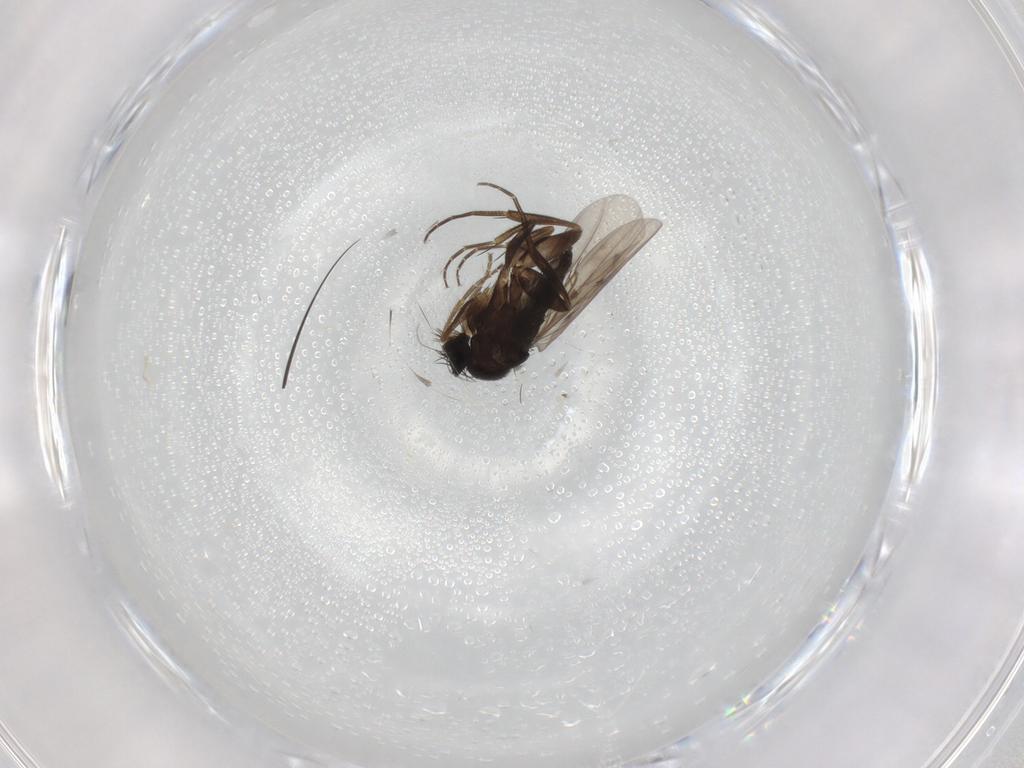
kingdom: Animalia
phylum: Arthropoda
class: Insecta
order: Diptera
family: Phoridae
